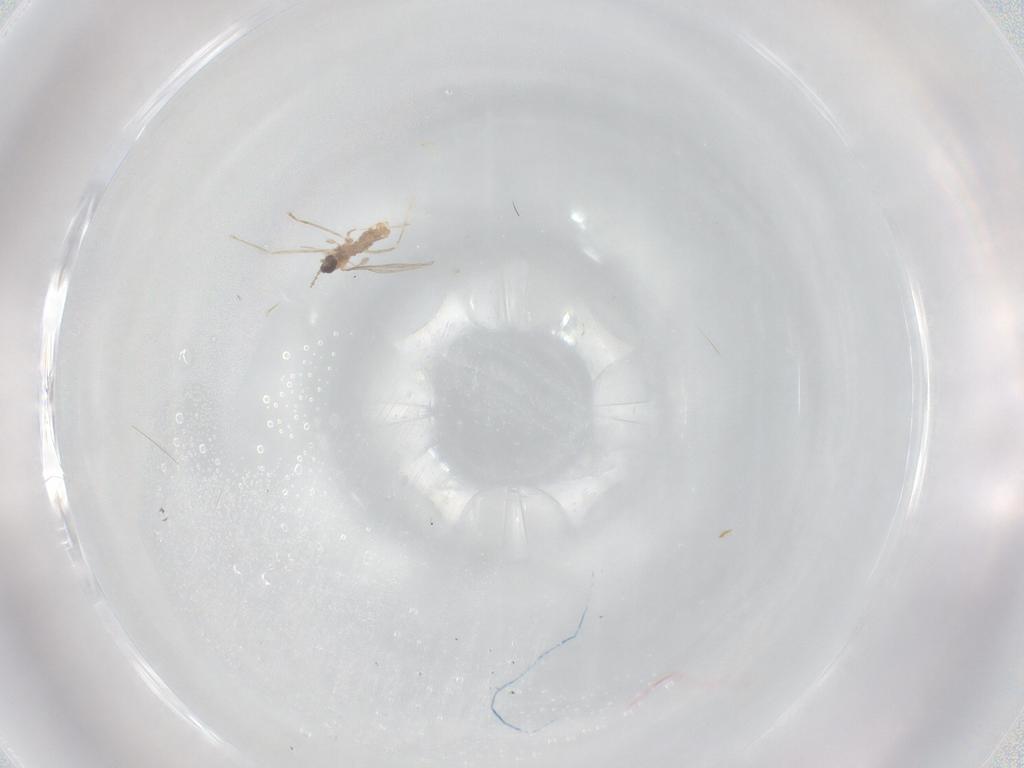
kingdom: Animalia
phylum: Arthropoda
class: Insecta
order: Diptera
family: Cecidomyiidae
